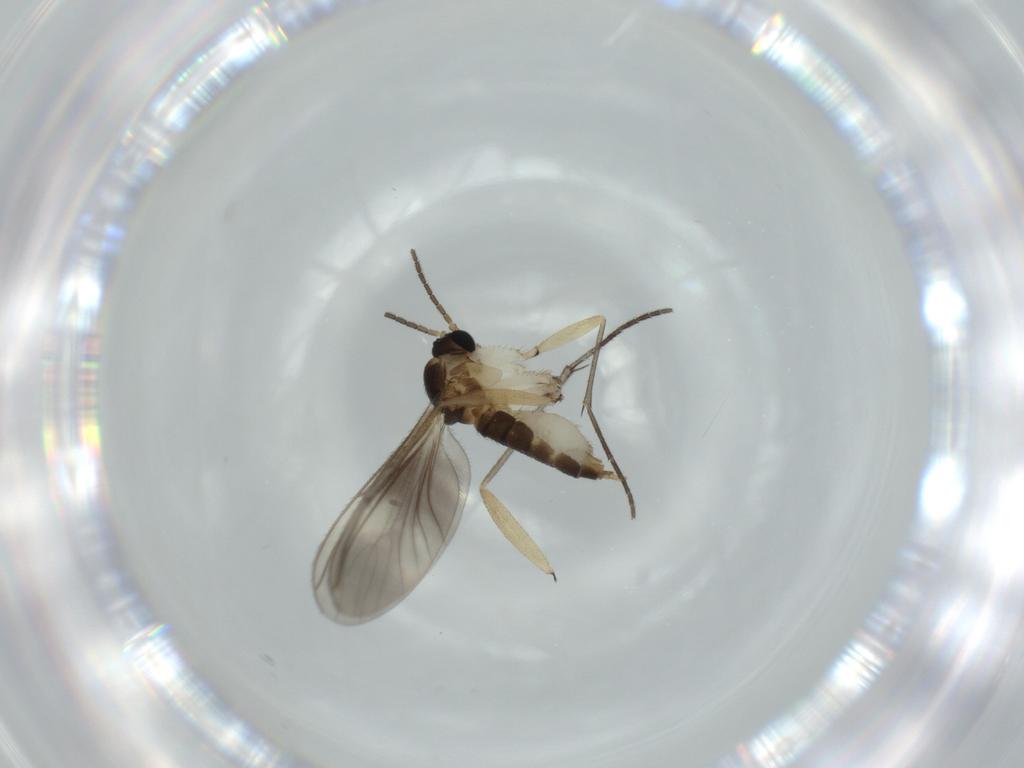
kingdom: Animalia
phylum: Arthropoda
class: Insecta
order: Diptera
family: Sciaridae
